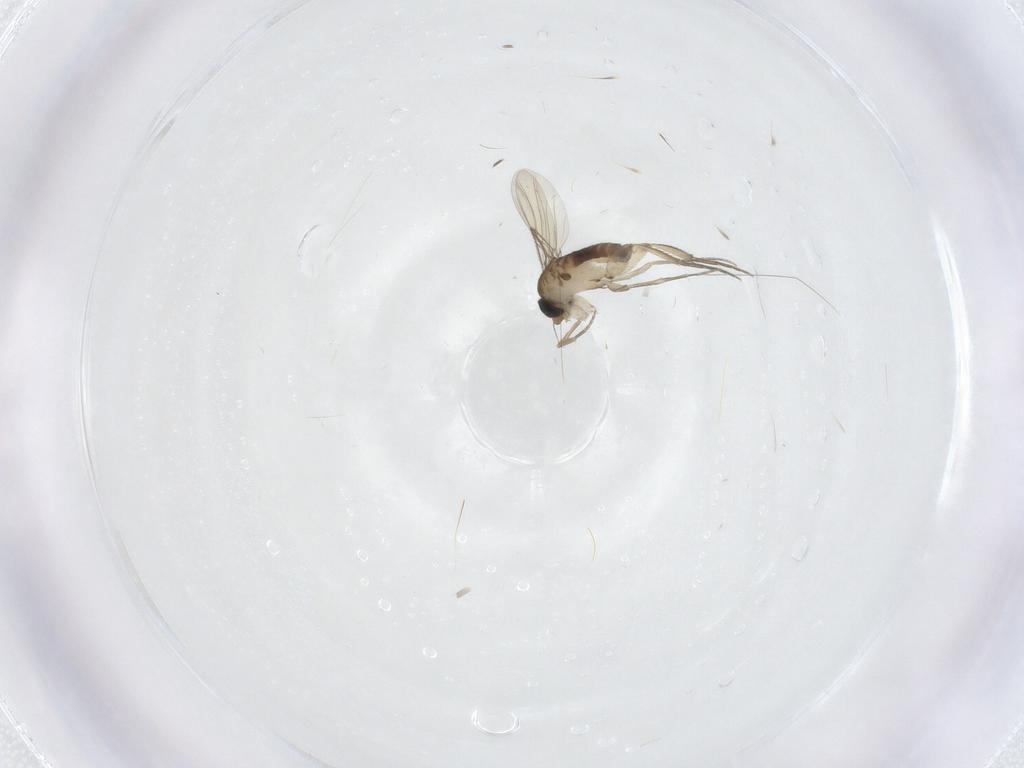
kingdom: Animalia
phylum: Arthropoda
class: Insecta
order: Diptera
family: Phoridae
